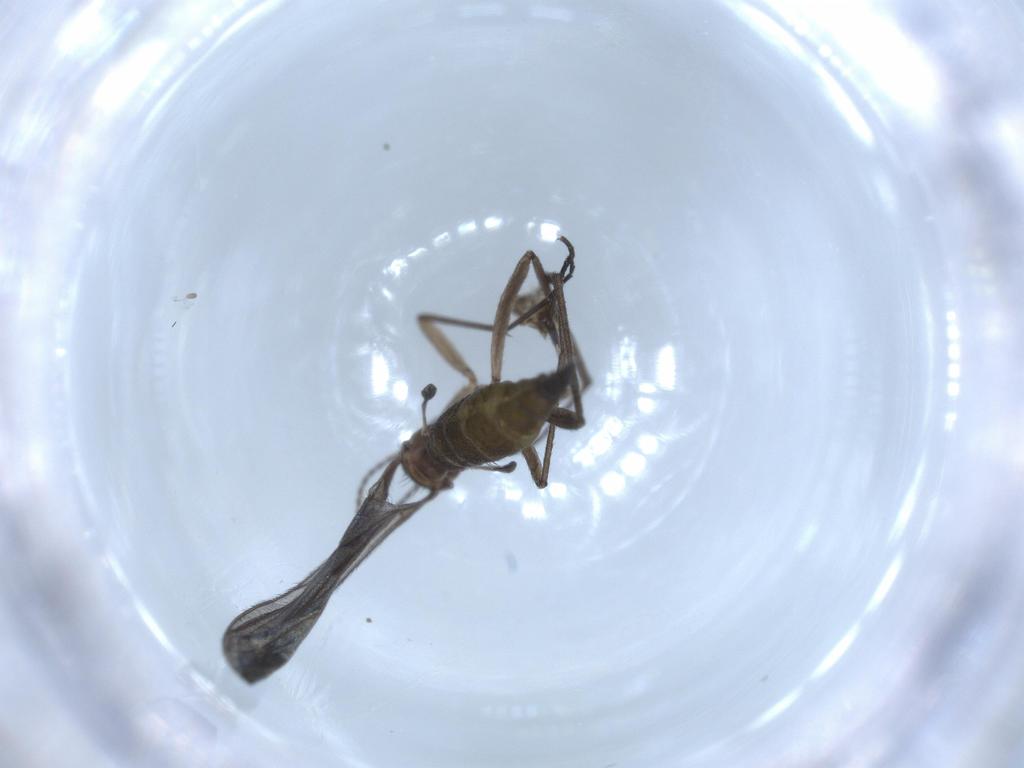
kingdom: Animalia
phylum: Arthropoda
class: Insecta
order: Diptera
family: Sciaridae
